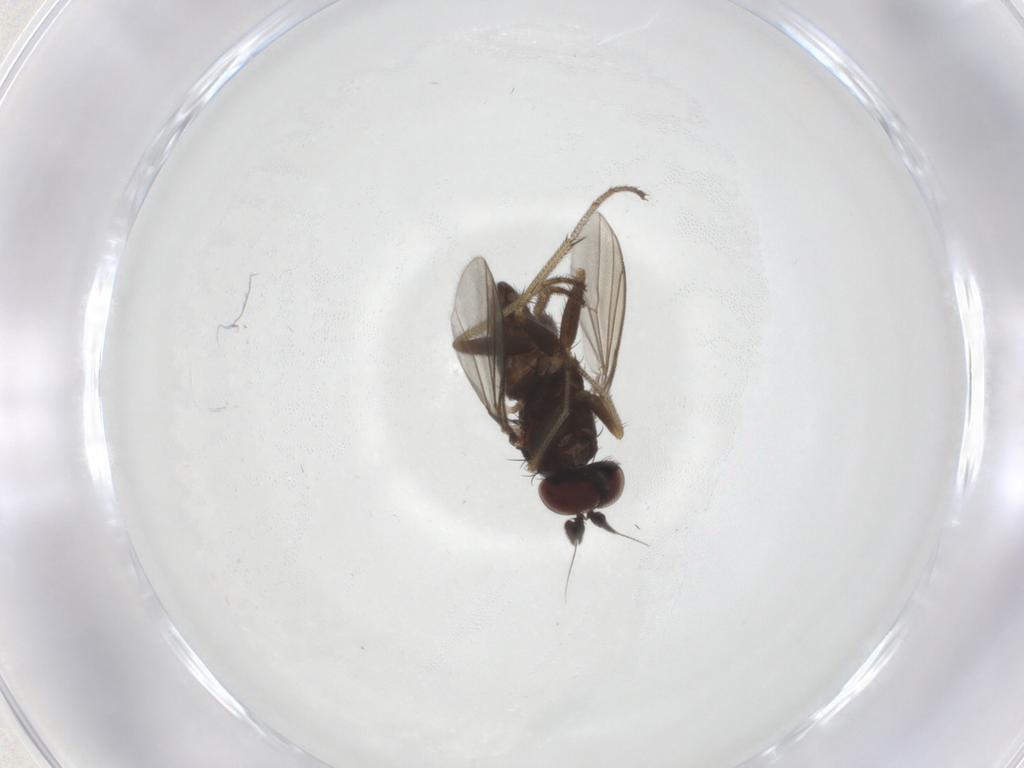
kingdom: Animalia
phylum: Arthropoda
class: Insecta
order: Diptera
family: Dolichopodidae
